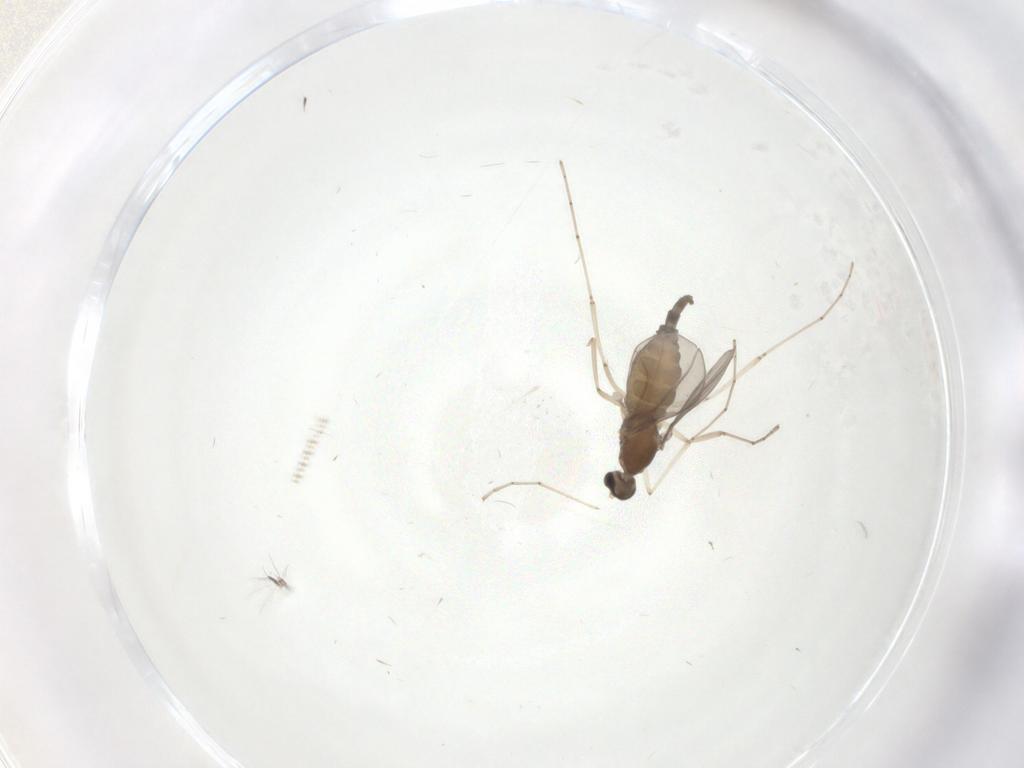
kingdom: Animalia
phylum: Arthropoda
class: Insecta
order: Diptera
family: Cecidomyiidae
